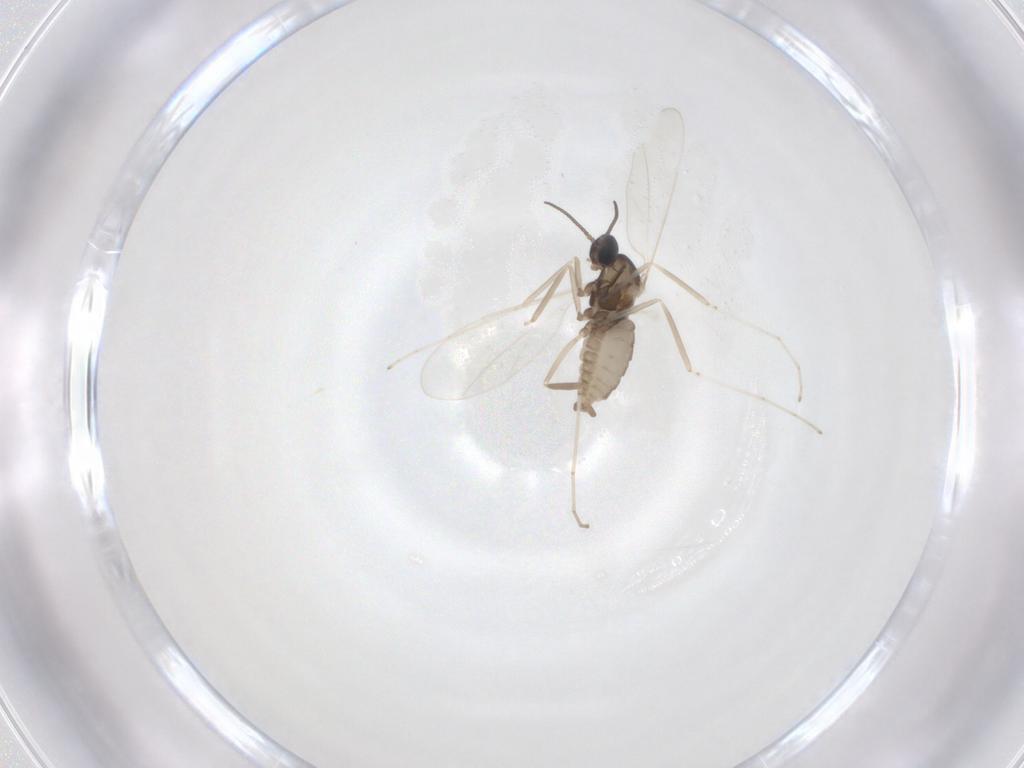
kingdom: Animalia
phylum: Arthropoda
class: Insecta
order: Diptera
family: Cecidomyiidae
